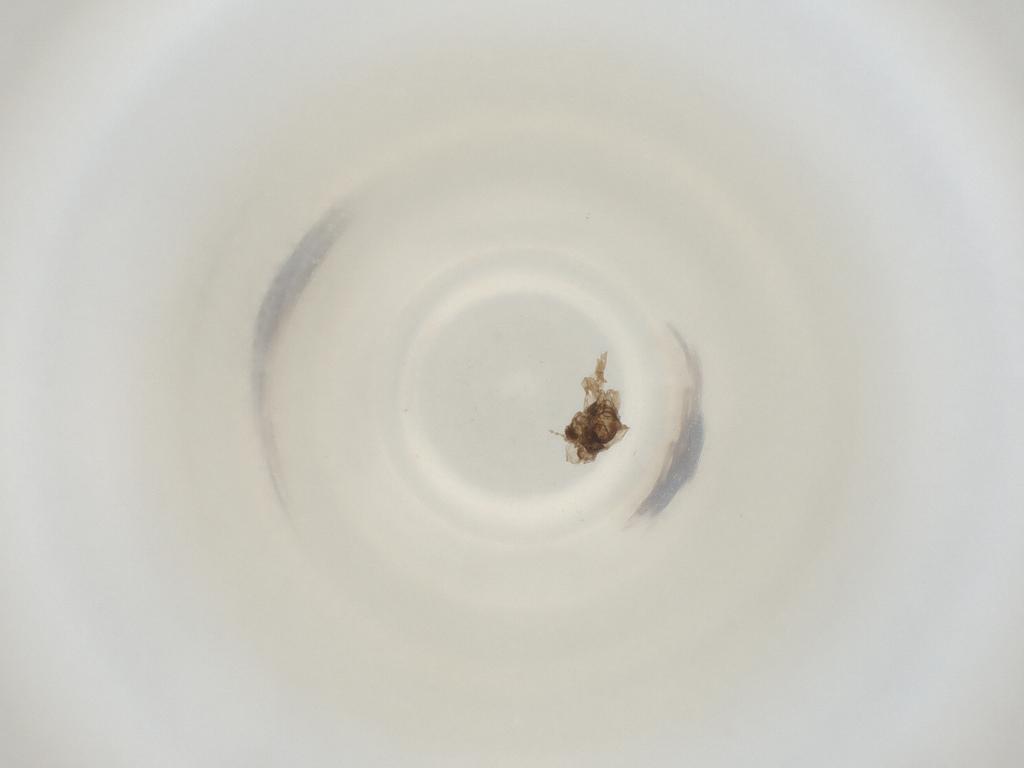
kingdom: Animalia
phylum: Arthropoda
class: Insecta
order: Diptera
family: Cecidomyiidae
